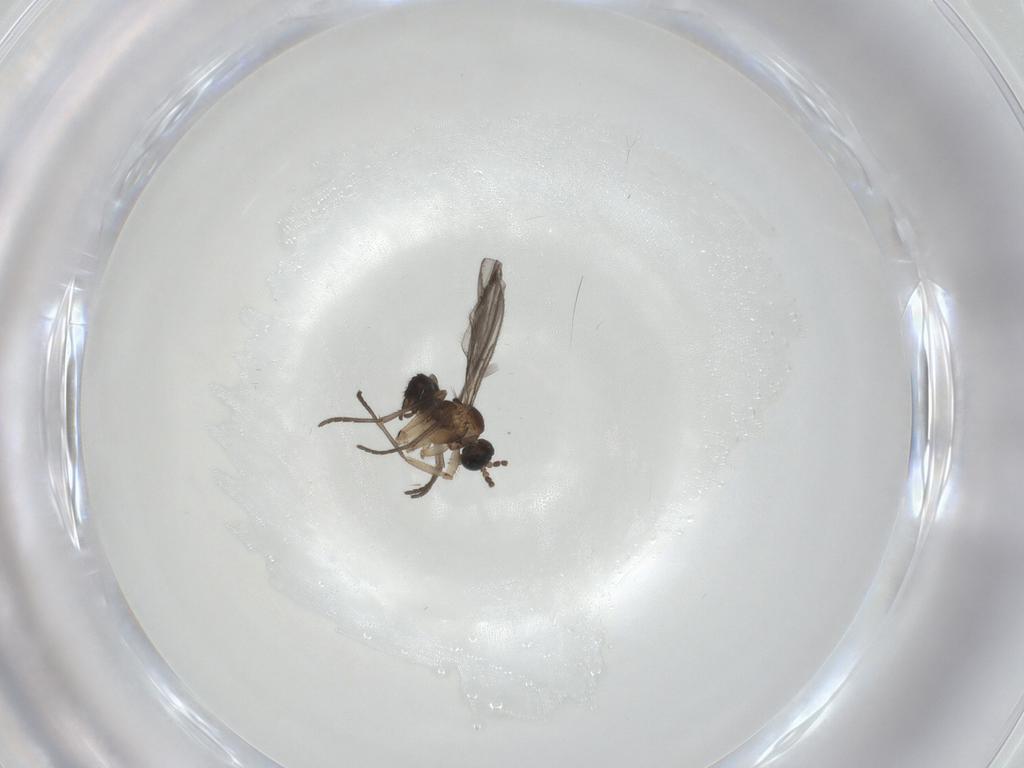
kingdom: Animalia
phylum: Arthropoda
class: Insecta
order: Diptera
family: Sciaridae
